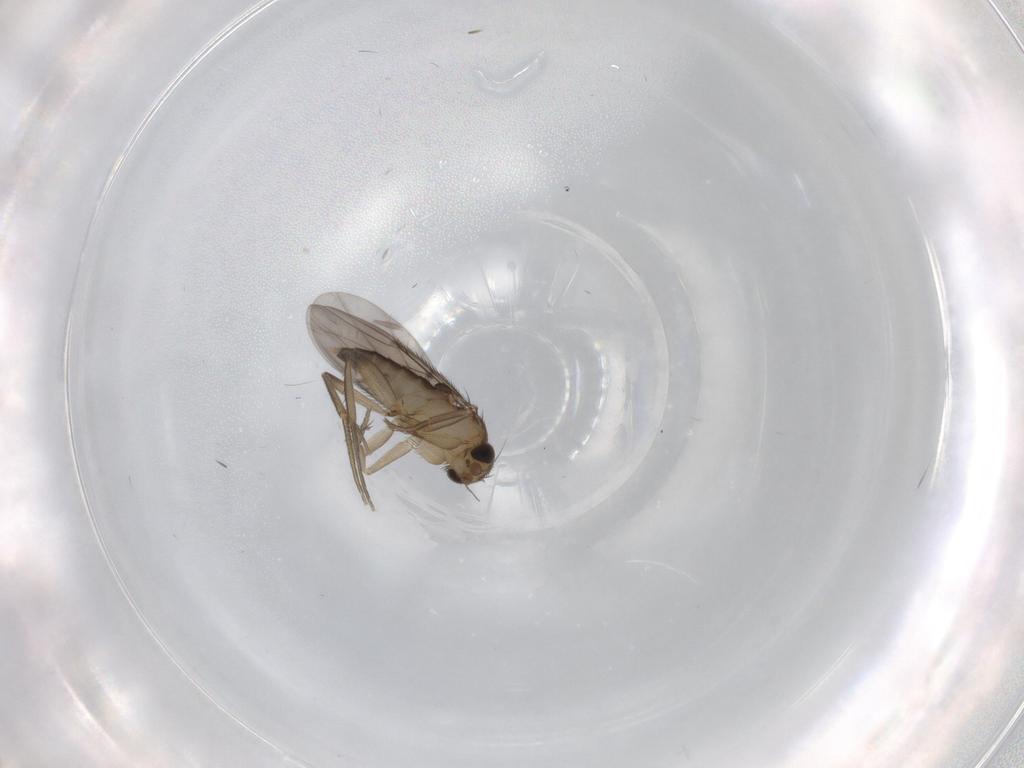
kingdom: Animalia
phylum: Arthropoda
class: Insecta
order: Diptera
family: Phoridae
